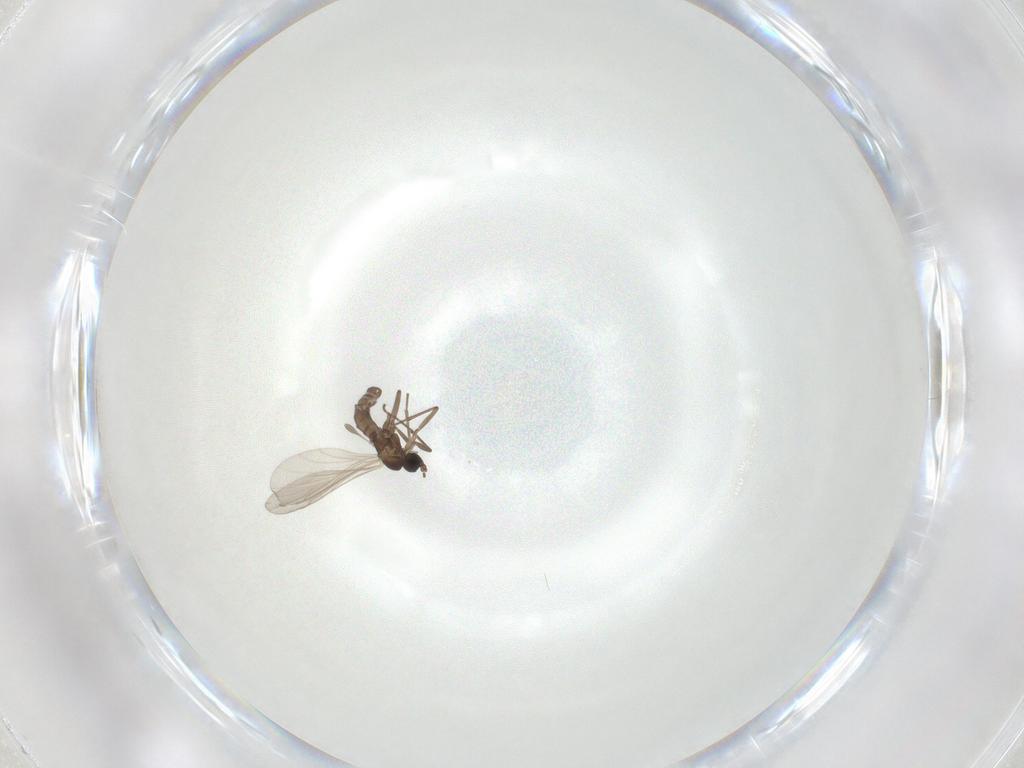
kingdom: Animalia
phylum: Arthropoda
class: Insecta
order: Diptera
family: Sciaridae
